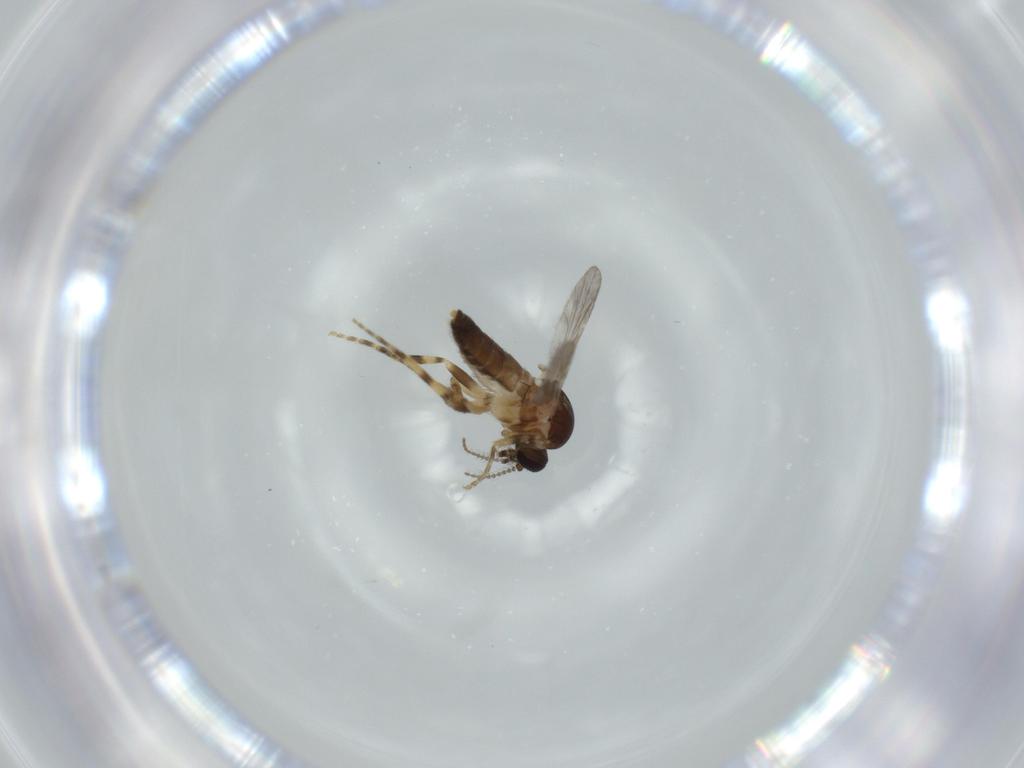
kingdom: Animalia
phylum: Arthropoda
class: Insecta
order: Diptera
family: Ceratopogonidae
